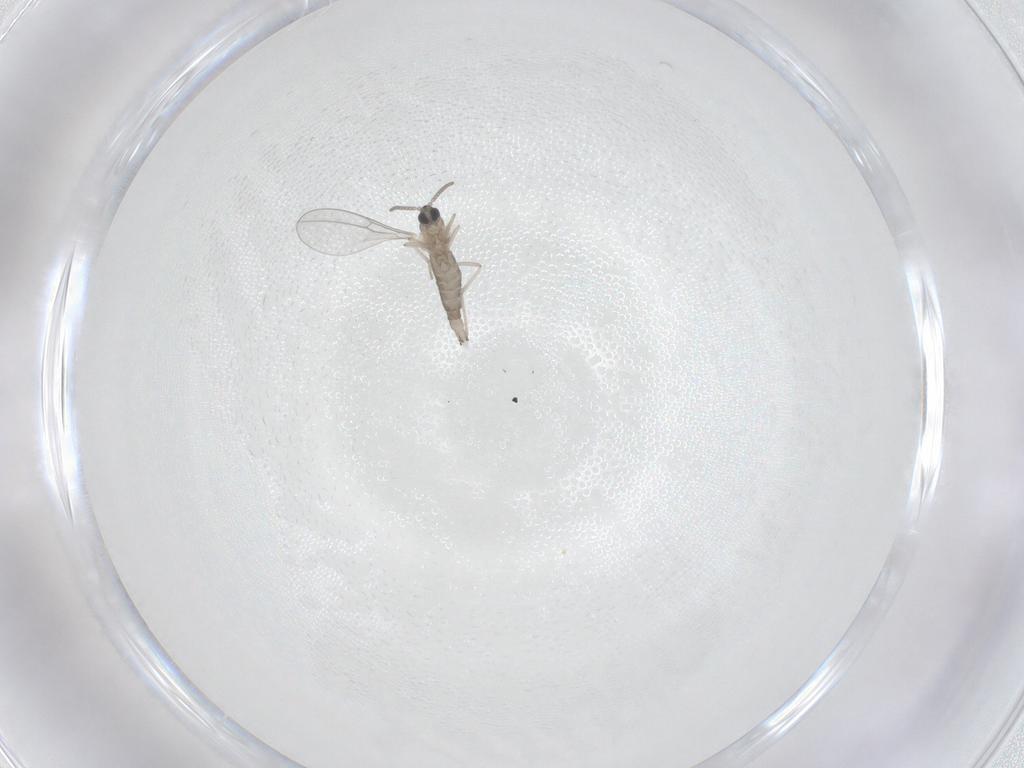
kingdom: Animalia
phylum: Arthropoda
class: Insecta
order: Diptera
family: Cecidomyiidae
